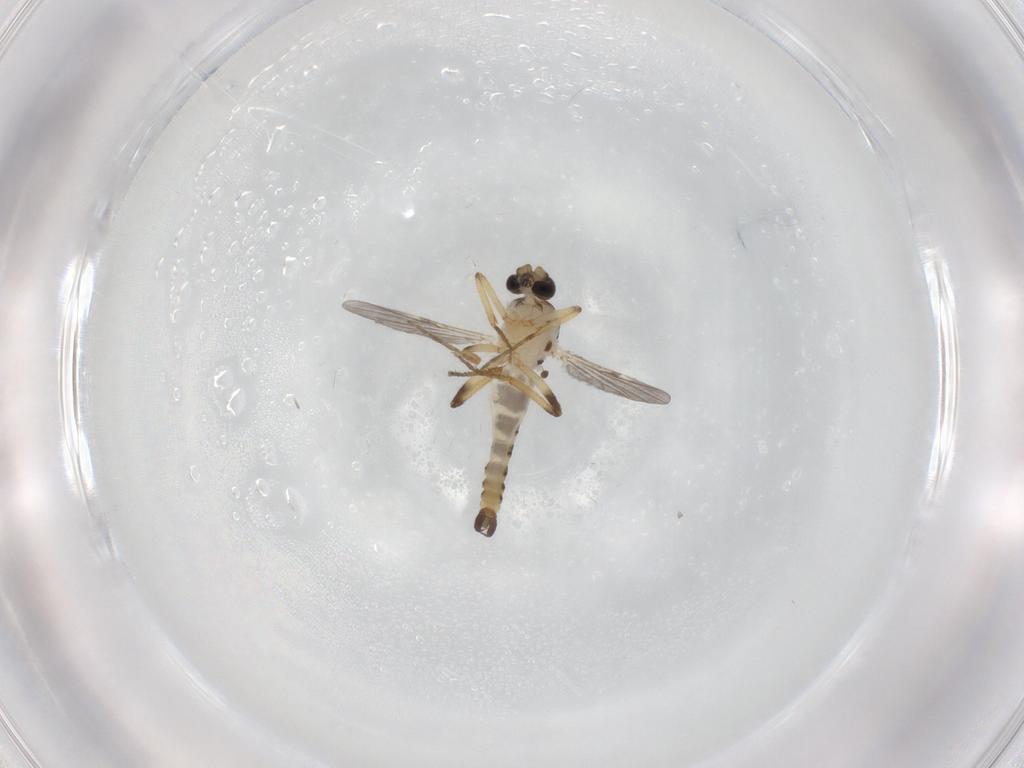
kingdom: Animalia
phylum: Arthropoda
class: Insecta
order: Diptera
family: Ceratopogonidae
